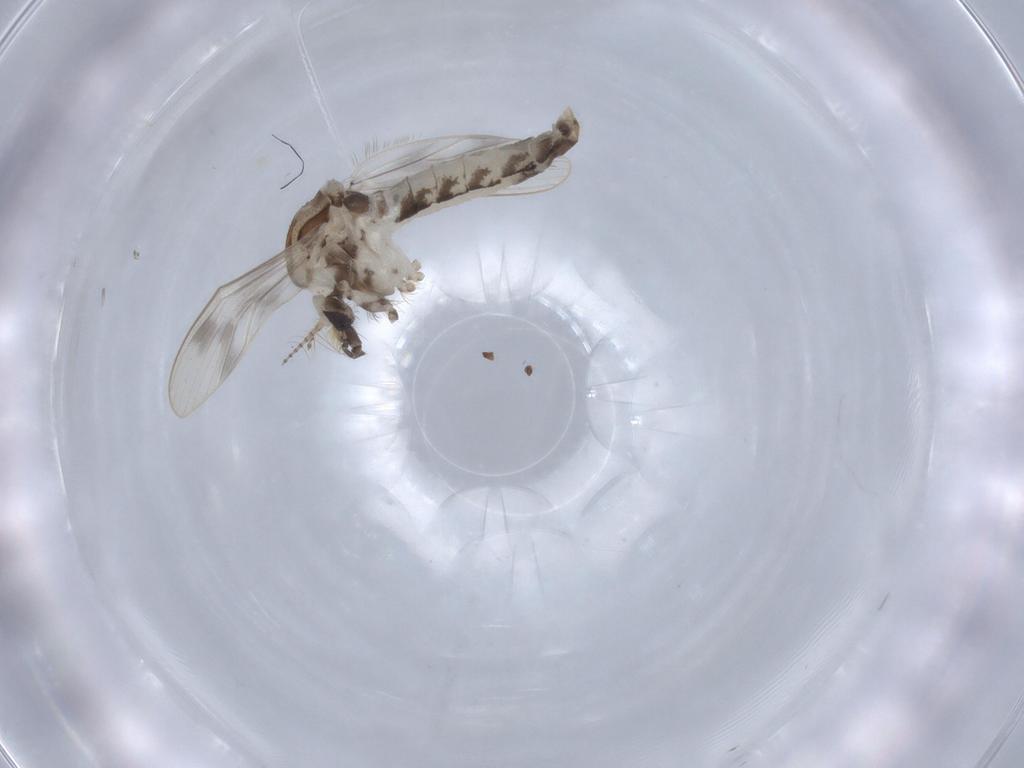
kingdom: Animalia
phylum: Arthropoda
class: Insecta
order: Diptera
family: Corethrellidae
